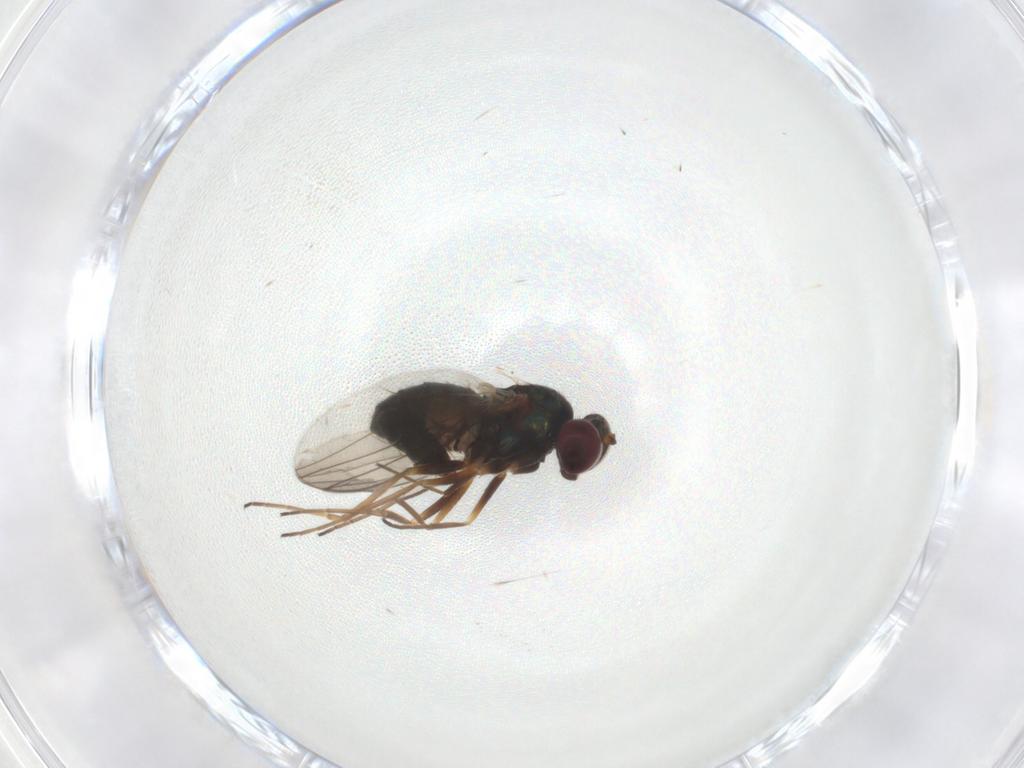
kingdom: Animalia
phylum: Arthropoda
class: Insecta
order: Diptera
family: Dolichopodidae
